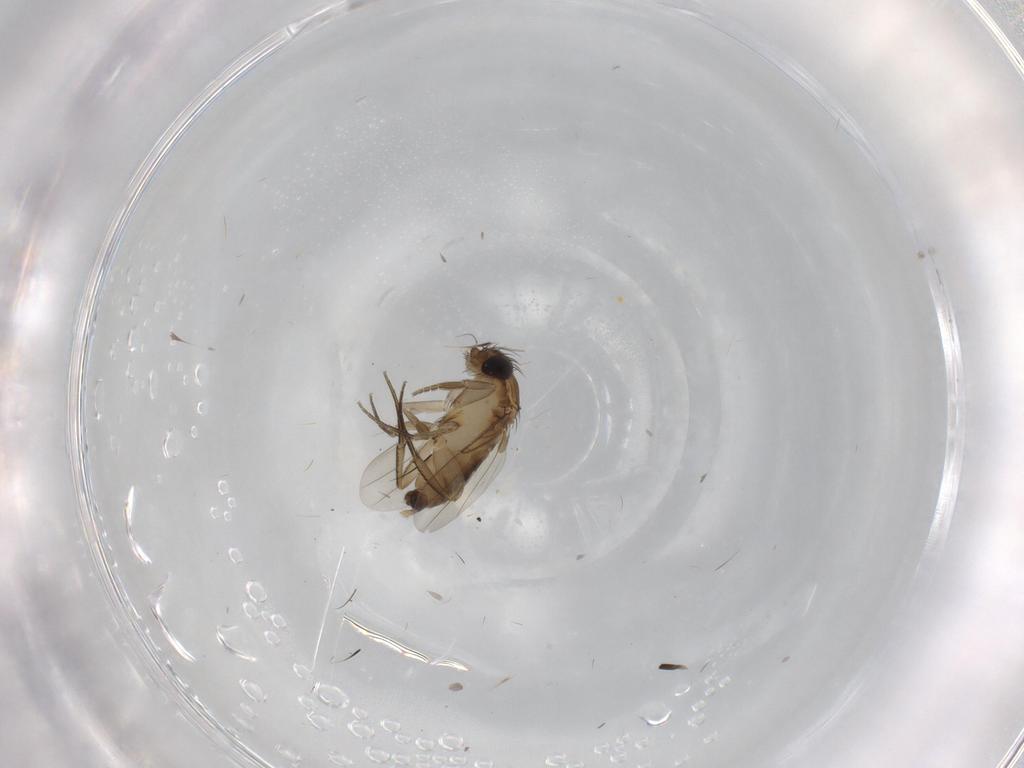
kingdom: Animalia
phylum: Arthropoda
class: Insecta
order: Diptera
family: Phoridae
